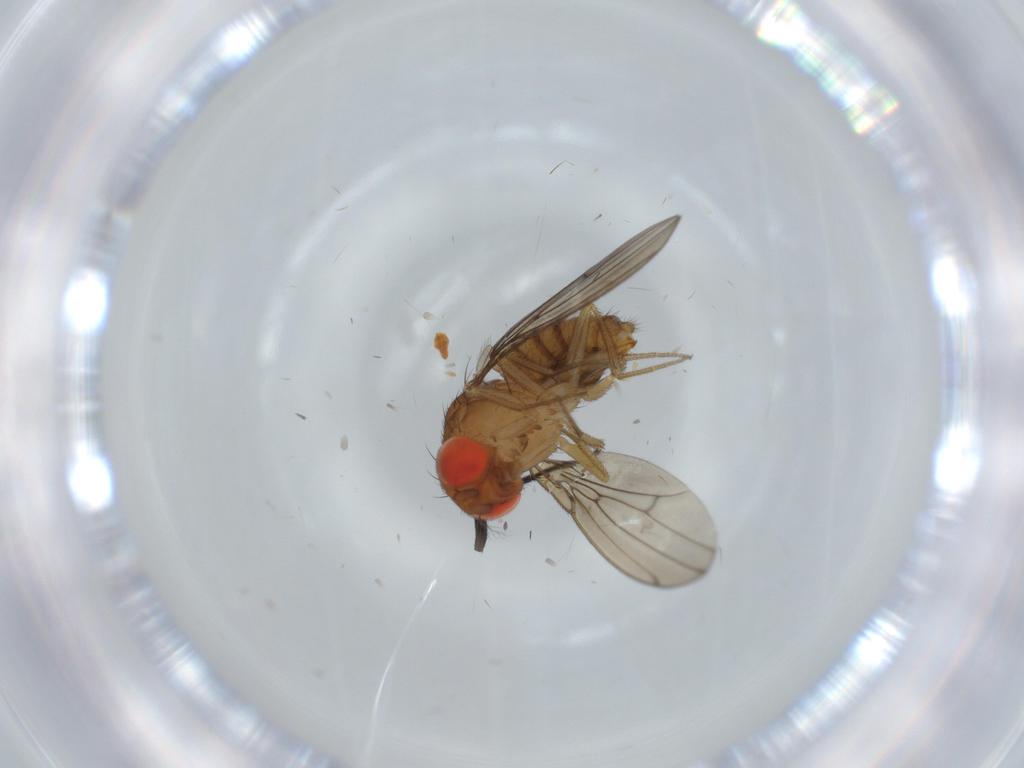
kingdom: Animalia
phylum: Arthropoda
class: Insecta
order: Diptera
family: Drosophilidae
